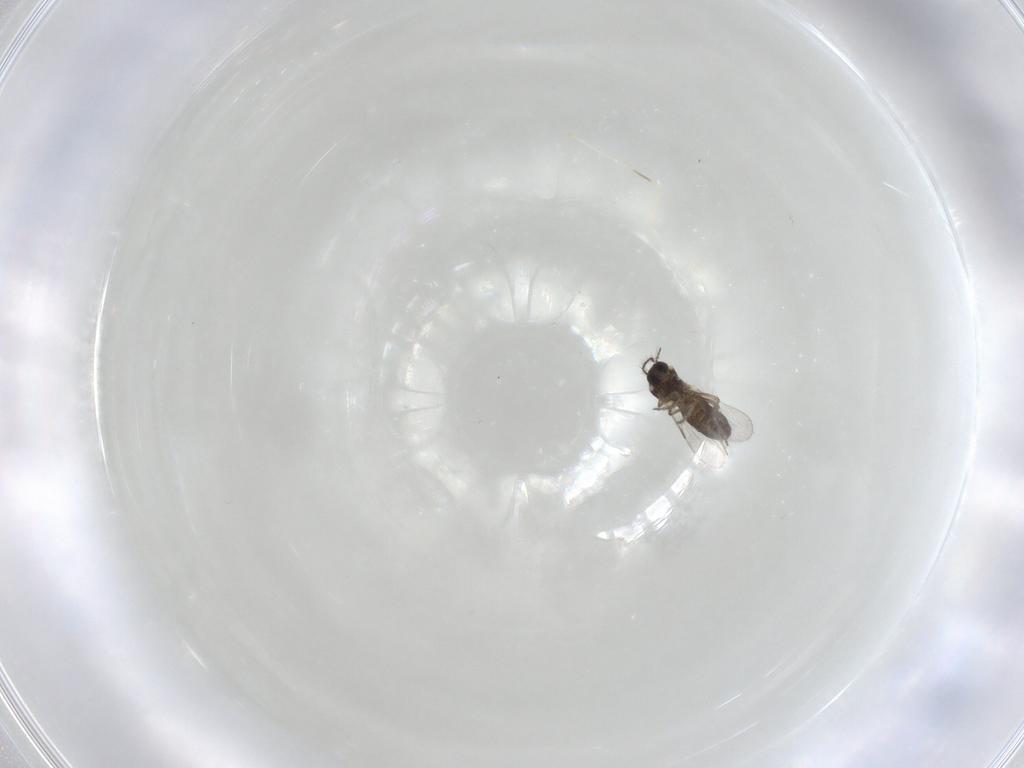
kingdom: Animalia
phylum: Arthropoda
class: Insecta
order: Diptera
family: Ceratopogonidae
